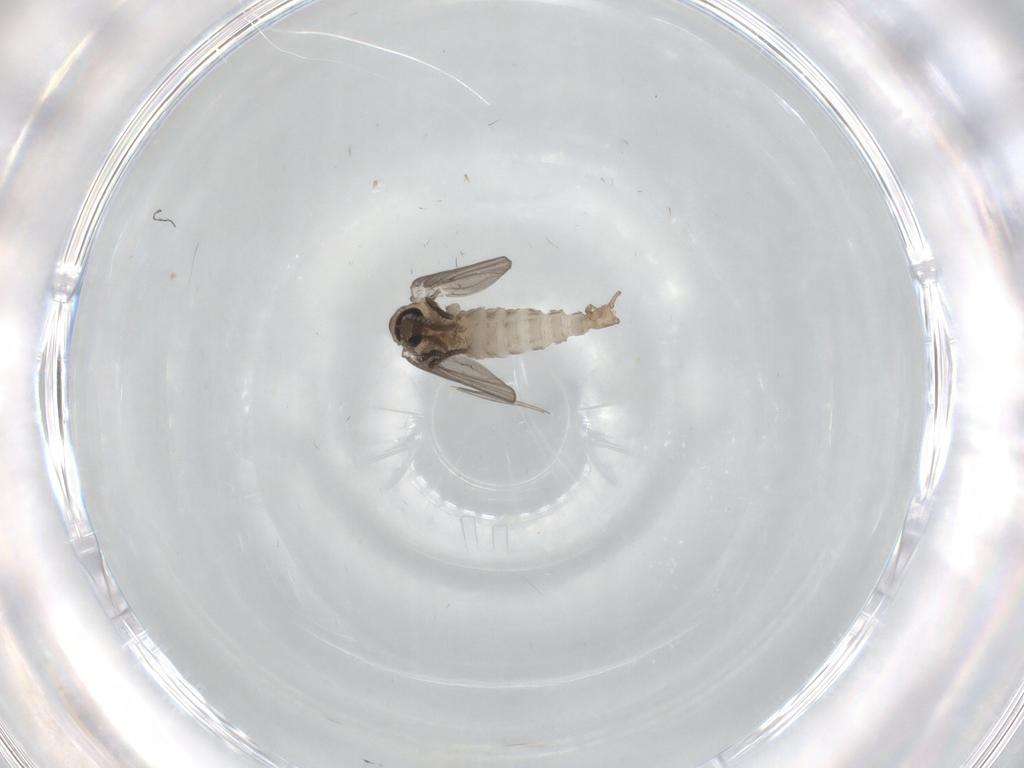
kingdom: Animalia
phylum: Arthropoda
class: Insecta
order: Diptera
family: Psychodidae
